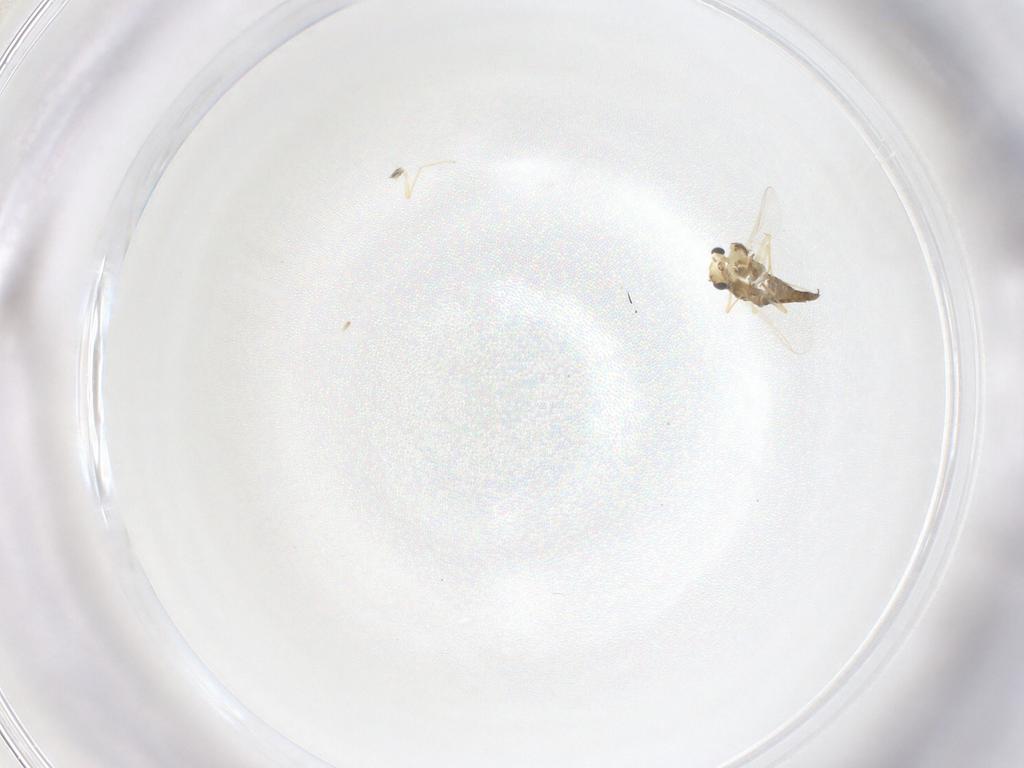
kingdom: Animalia
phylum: Arthropoda
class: Insecta
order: Diptera
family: Chironomidae
